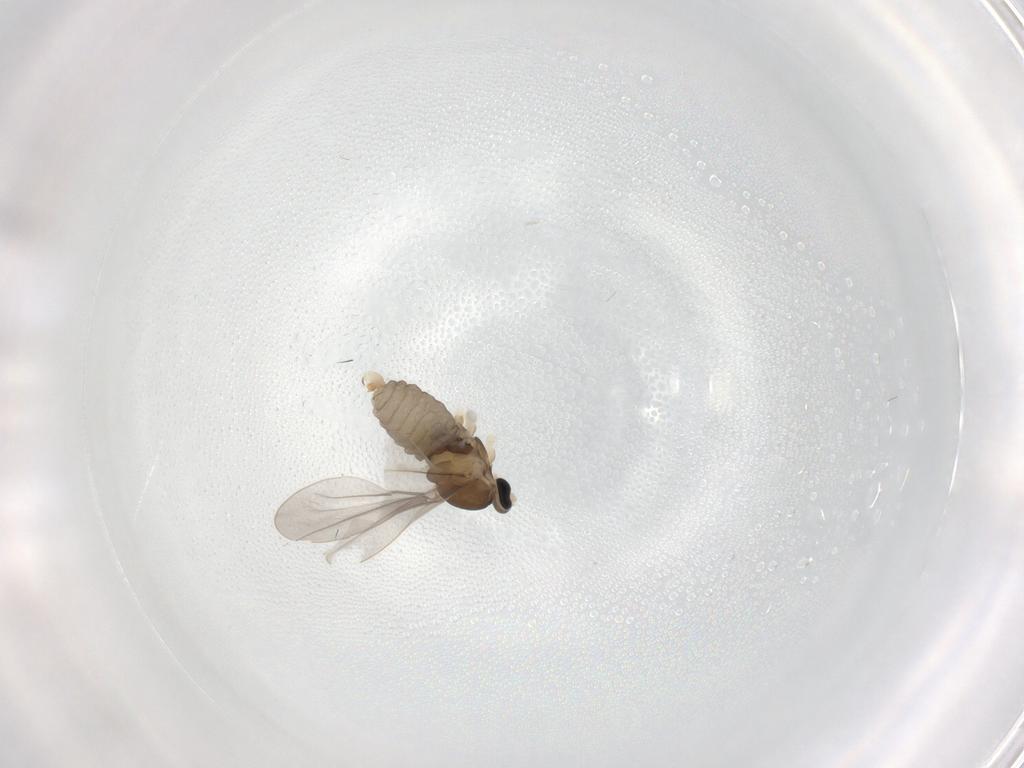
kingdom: Animalia
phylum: Arthropoda
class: Insecta
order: Diptera
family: Cecidomyiidae
